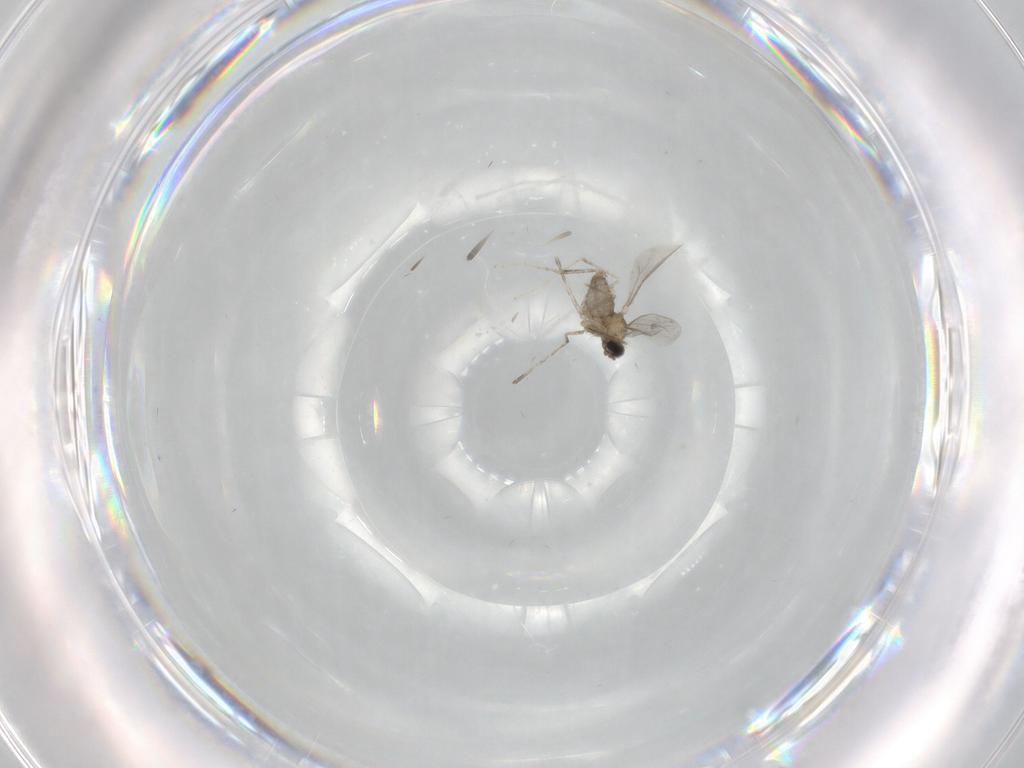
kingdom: Animalia
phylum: Arthropoda
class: Insecta
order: Diptera
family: Cecidomyiidae
